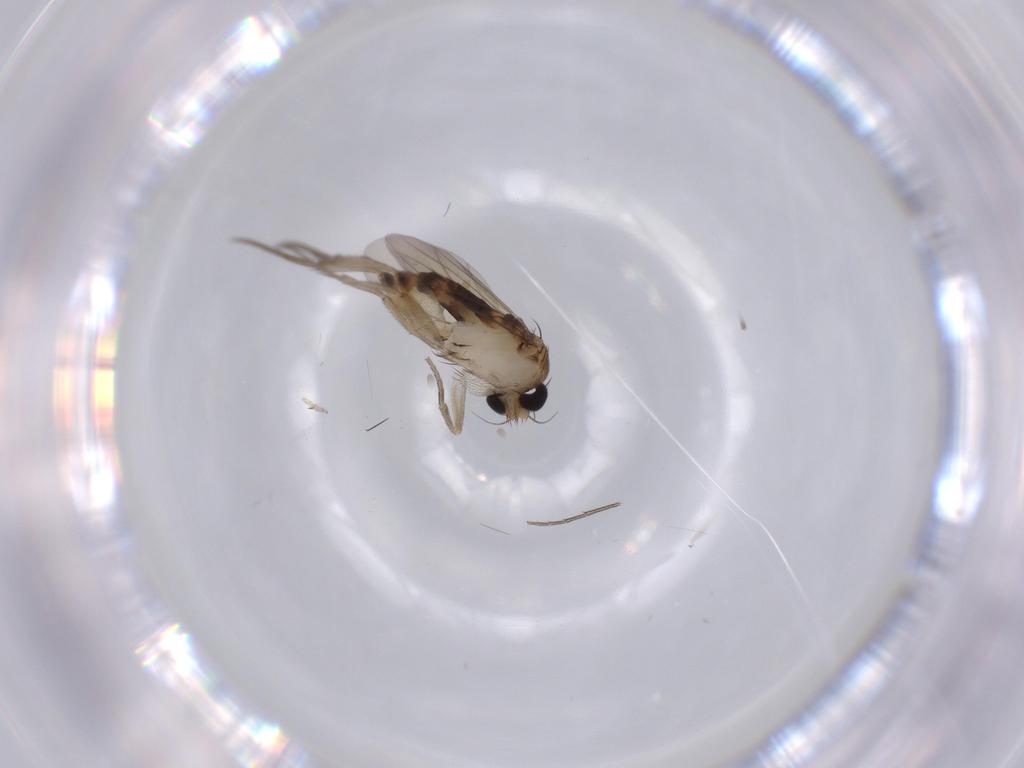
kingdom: Animalia
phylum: Arthropoda
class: Insecta
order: Diptera
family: Phoridae
